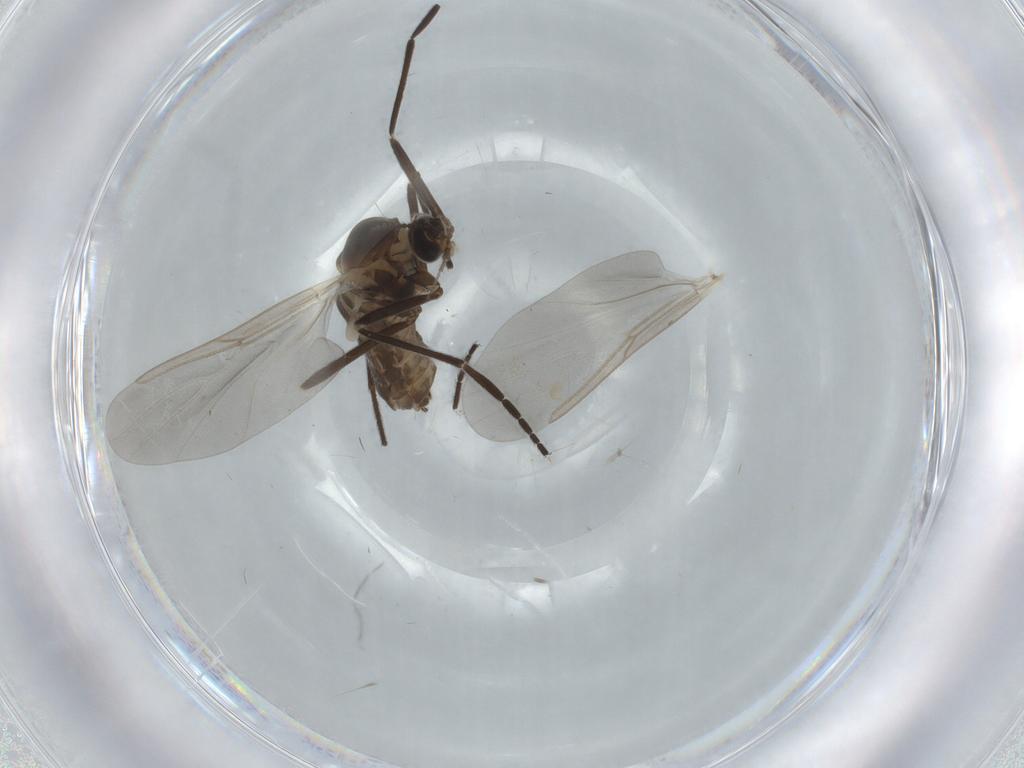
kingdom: Animalia
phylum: Arthropoda
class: Insecta
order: Diptera
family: Cecidomyiidae
